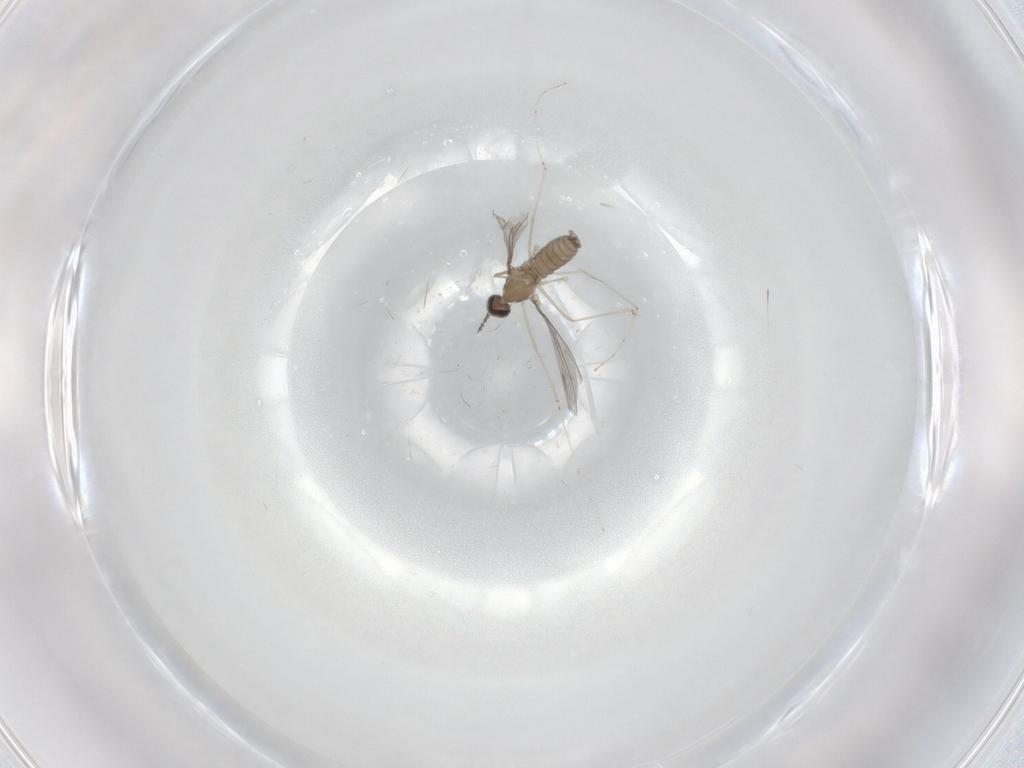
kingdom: Animalia
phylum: Arthropoda
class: Insecta
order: Diptera
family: Cecidomyiidae
